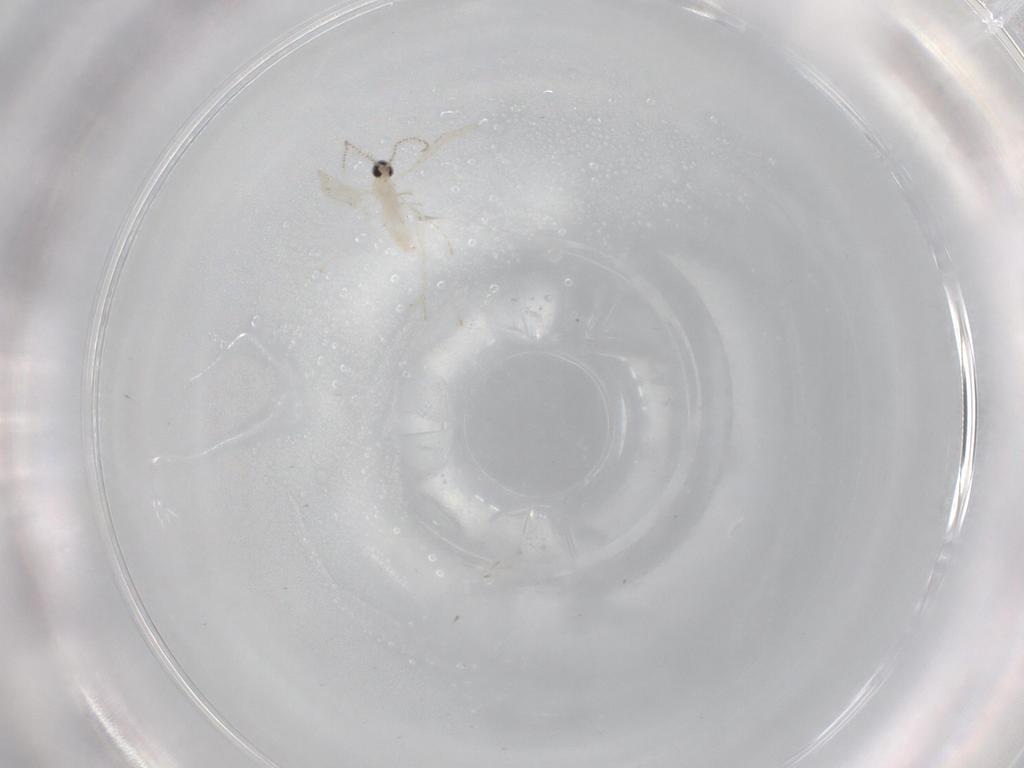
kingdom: Animalia
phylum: Arthropoda
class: Insecta
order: Diptera
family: Cecidomyiidae
